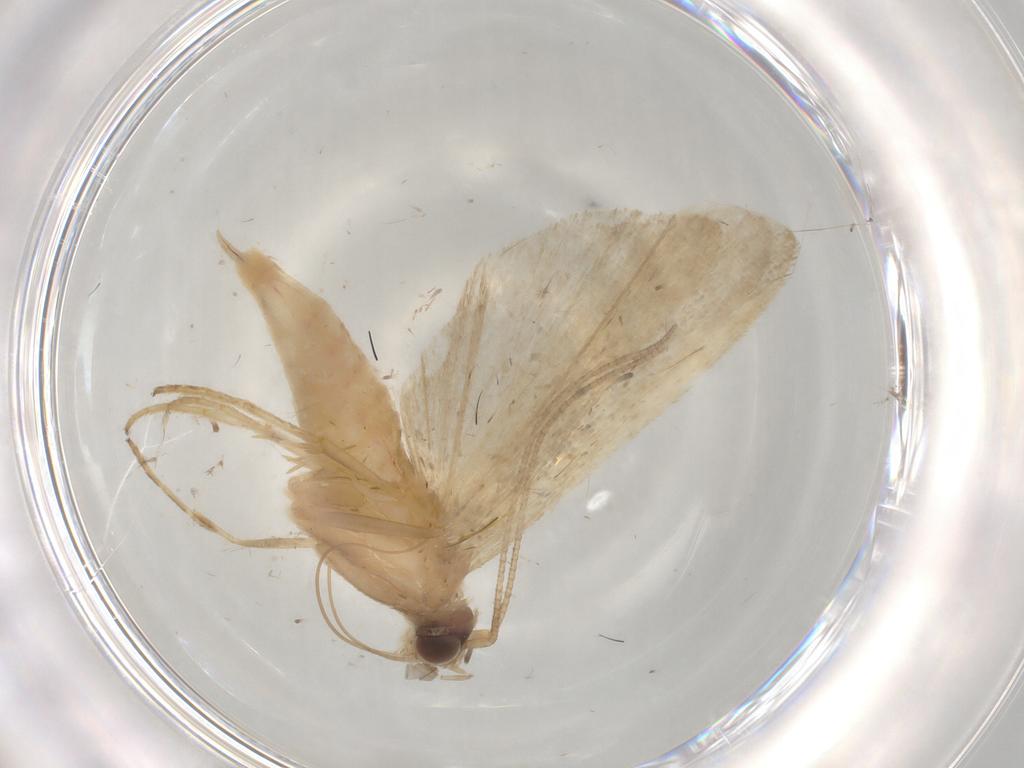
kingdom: Animalia
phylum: Arthropoda
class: Insecta
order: Lepidoptera
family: Noctuidae
